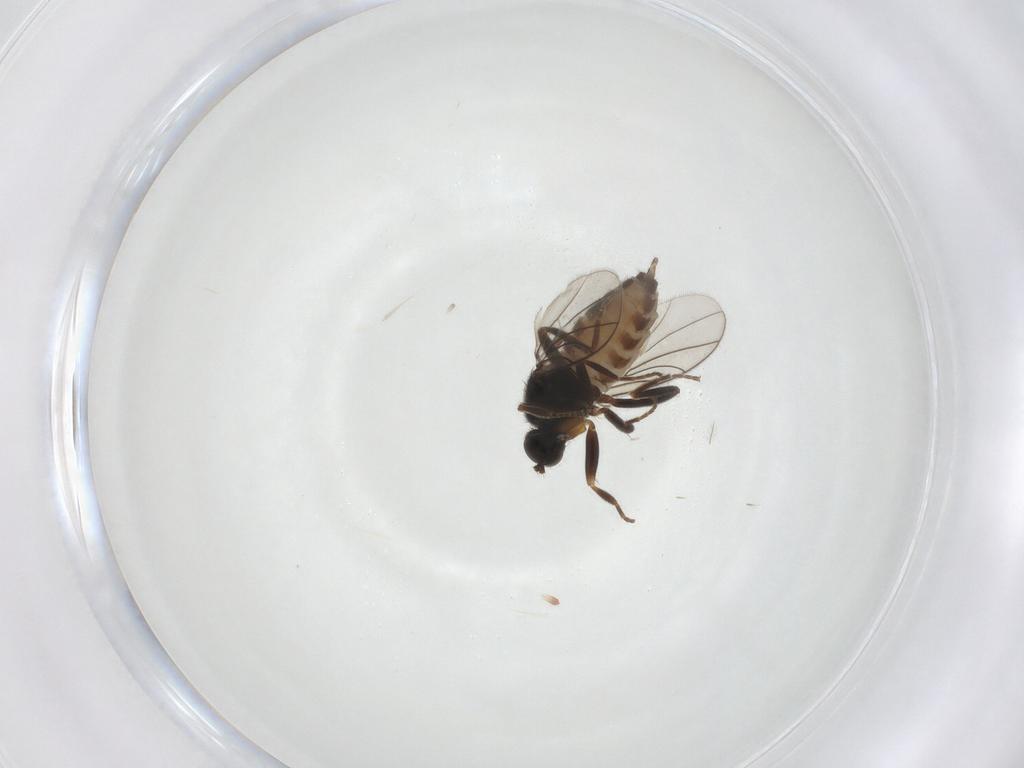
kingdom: Animalia
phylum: Arthropoda
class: Insecta
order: Diptera
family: Hybotidae
